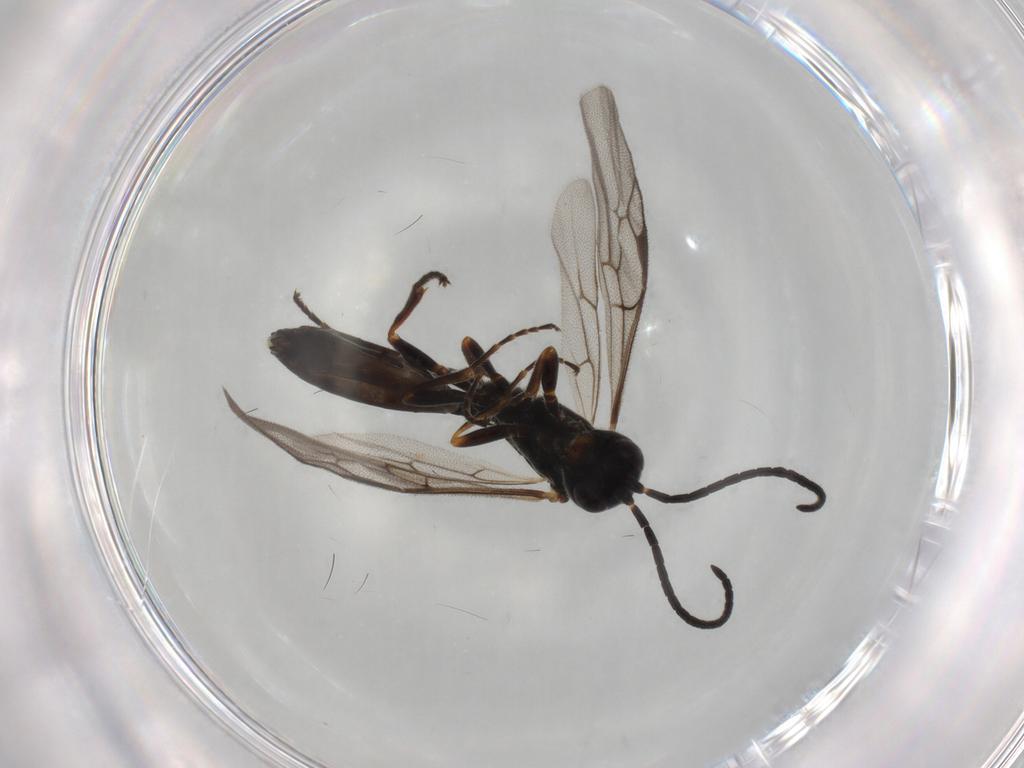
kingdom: Animalia
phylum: Arthropoda
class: Insecta
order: Hymenoptera
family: Ichneumonidae
